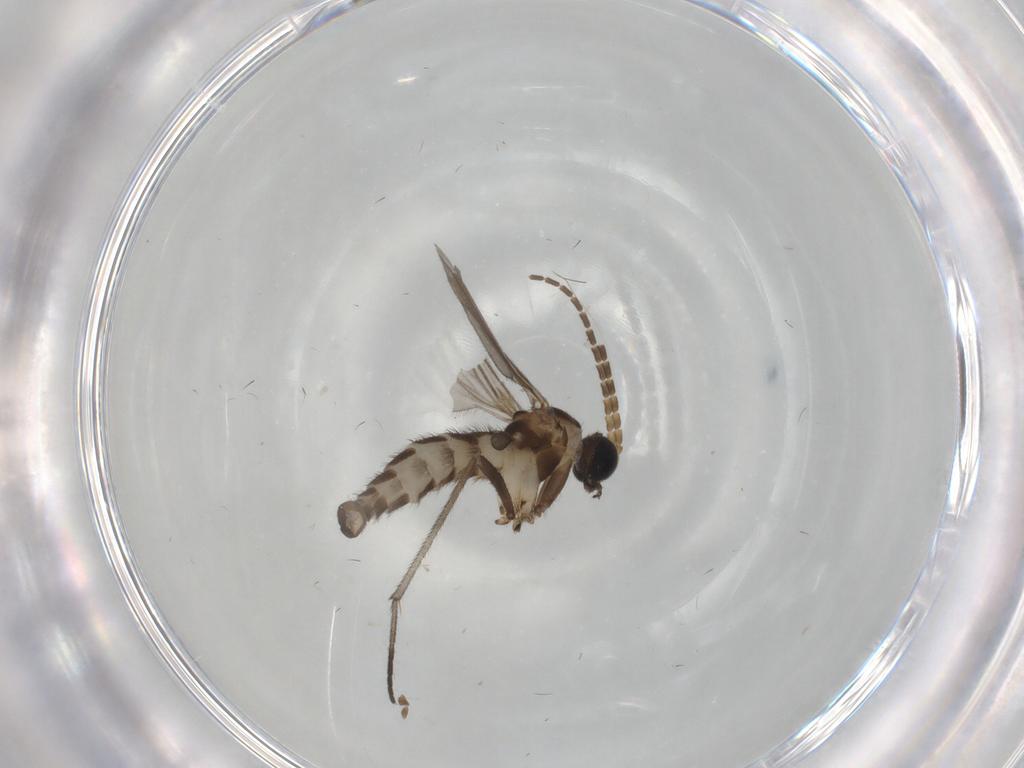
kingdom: Animalia
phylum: Arthropoda
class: Insecta
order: Diptera
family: Sciaridae
